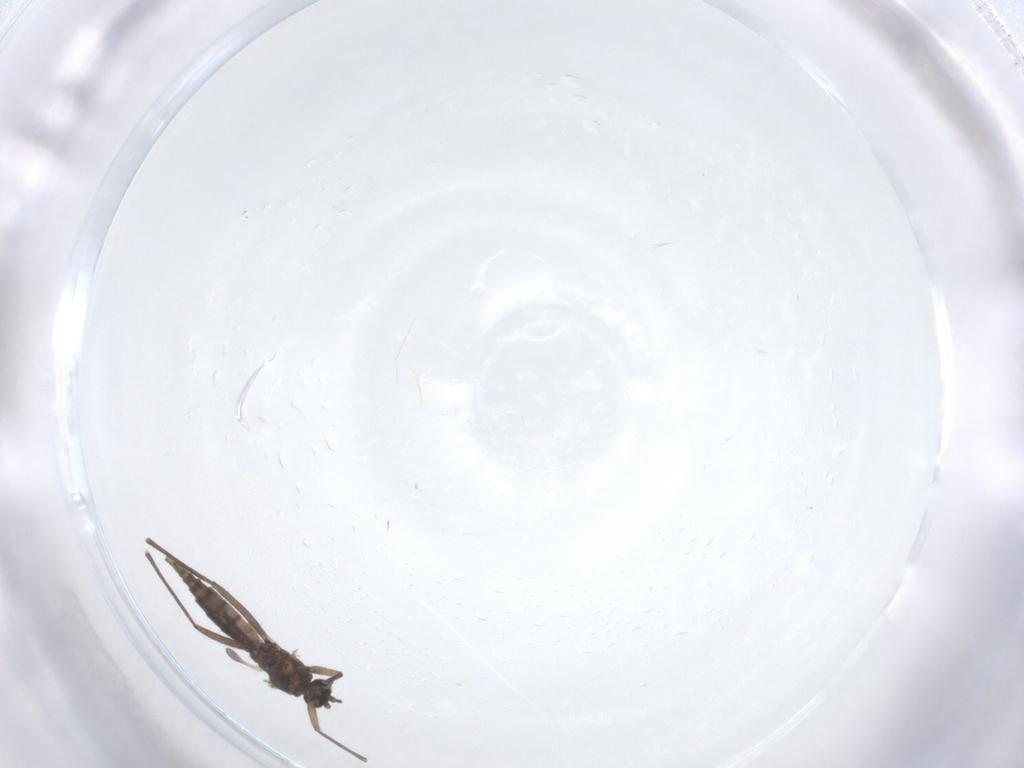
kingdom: Animalia
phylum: Arthropoda
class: Insecta
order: Diptera
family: Sciaridae
